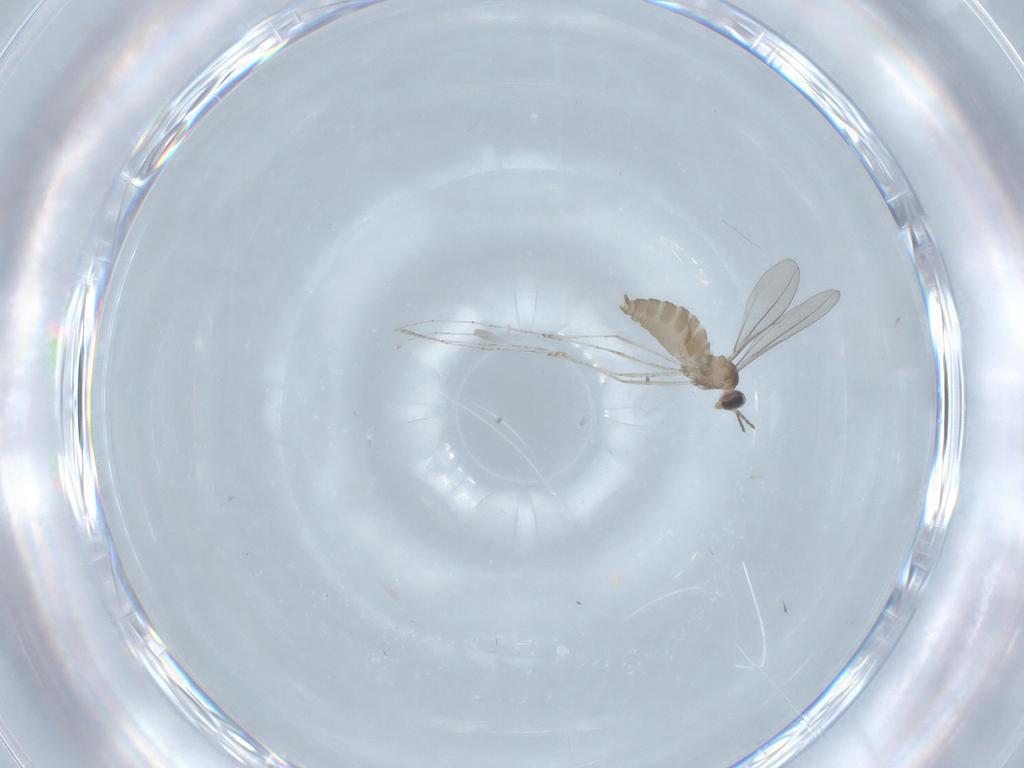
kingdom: Animalia
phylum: Arthropoda
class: Insecta
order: Diptera
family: Cecidomyiidae
